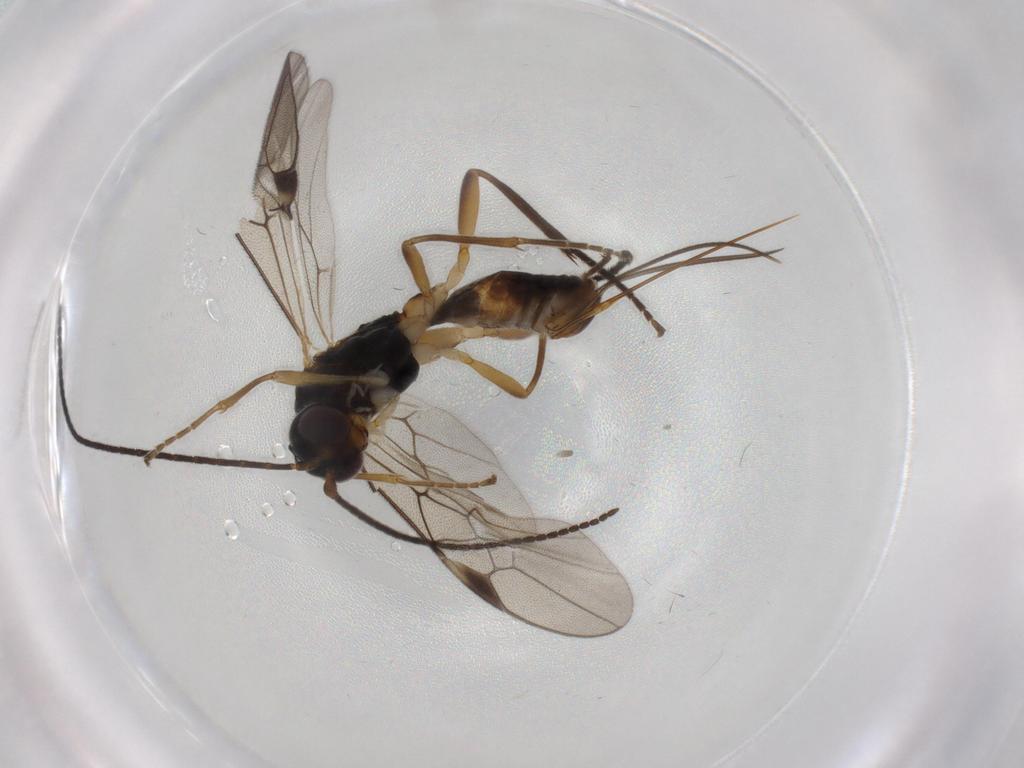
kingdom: Animalia
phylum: Arthropoda
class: Insecta
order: Hymenoptera
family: Braconidae
